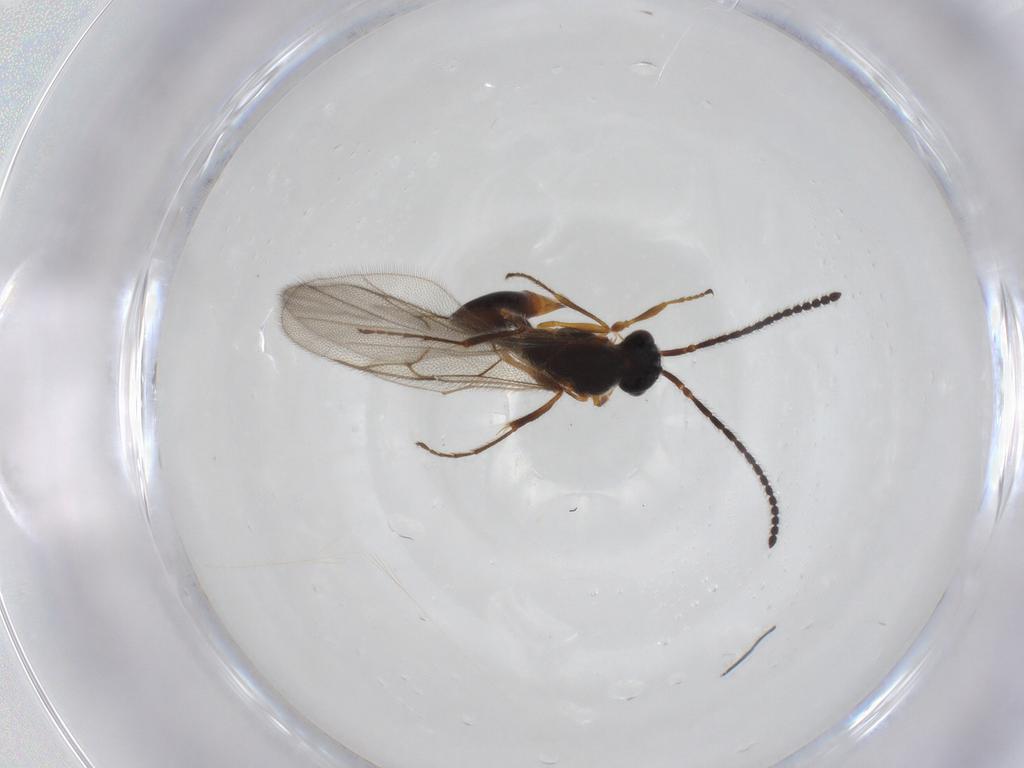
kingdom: Animalia
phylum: Arthropoda
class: Insecta
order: Hymenoptera
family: Diapriidae
